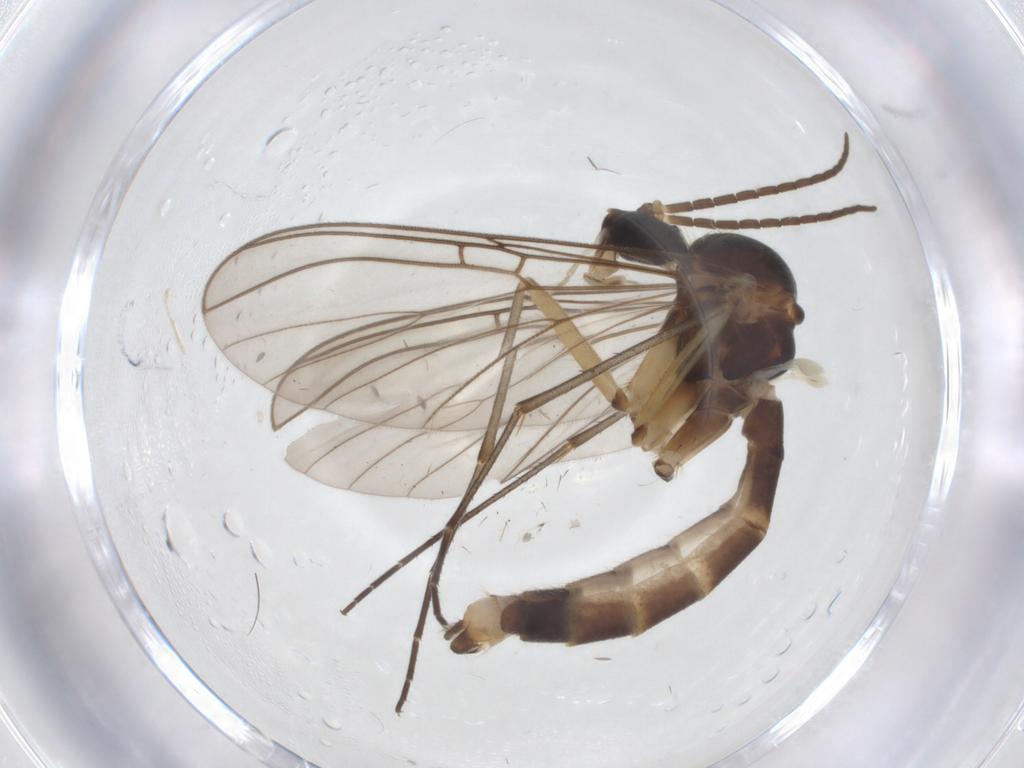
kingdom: Animalia
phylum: Arthropoda
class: Insecta
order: Diptera
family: Mycetophilidae
